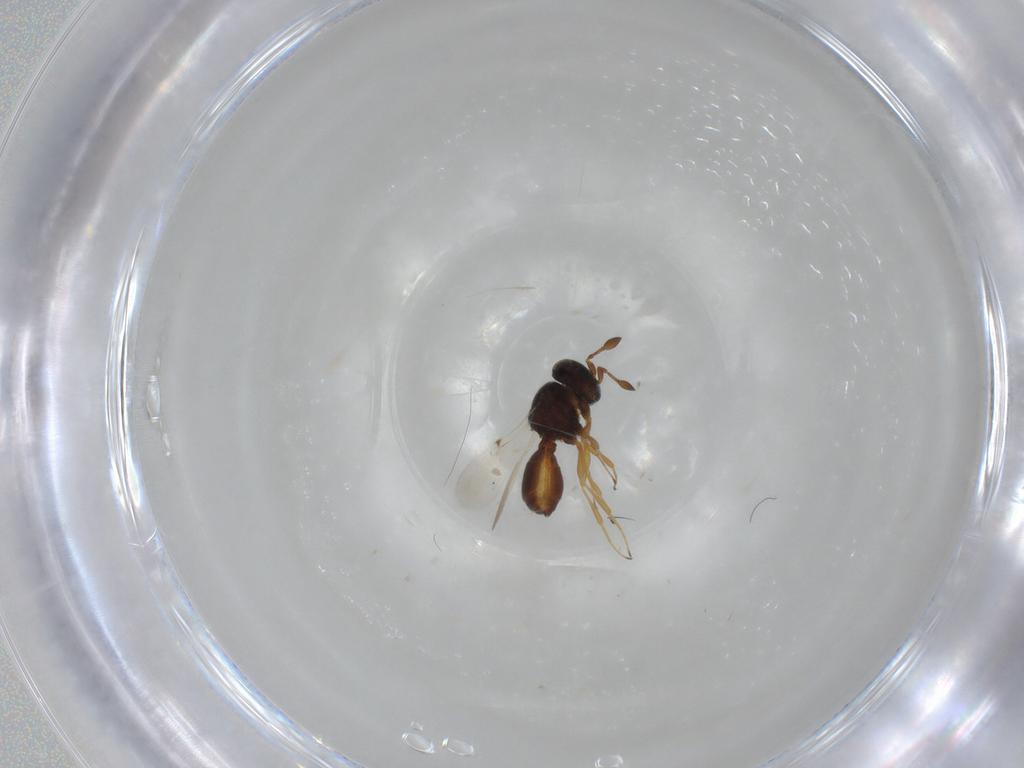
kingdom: Animalia
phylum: Arthropoda
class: Insecta
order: Hymenoptera
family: Scelionidae
